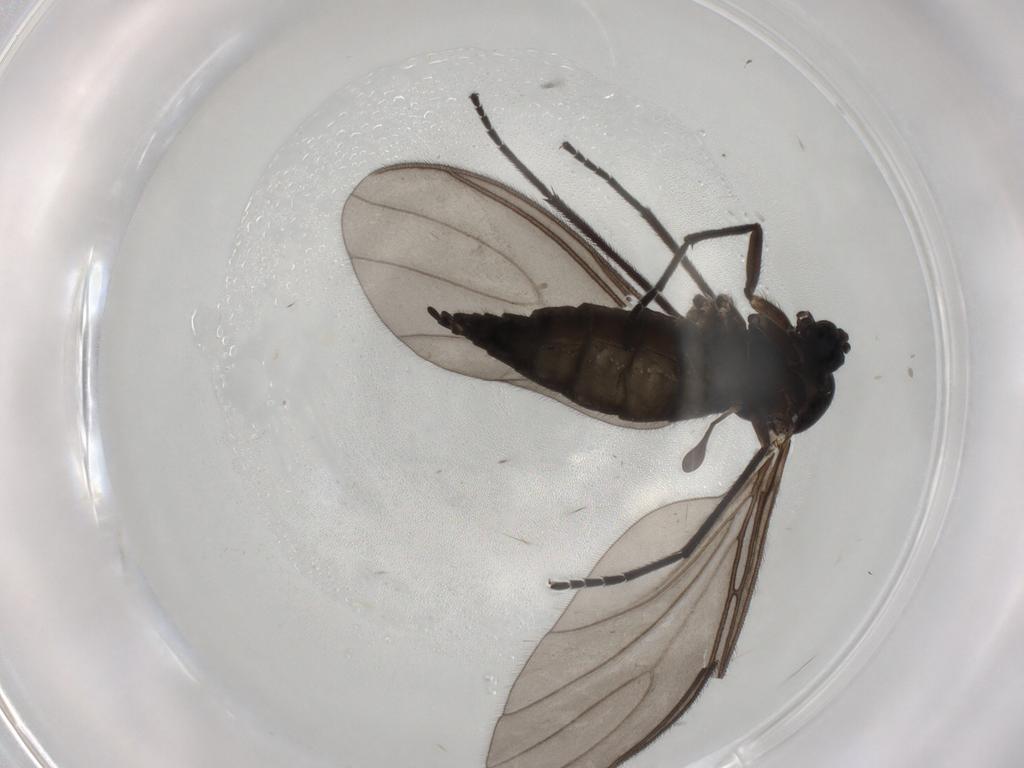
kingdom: Animalia
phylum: Arthropoda
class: Insecta
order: Diptera
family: Sciaridae
